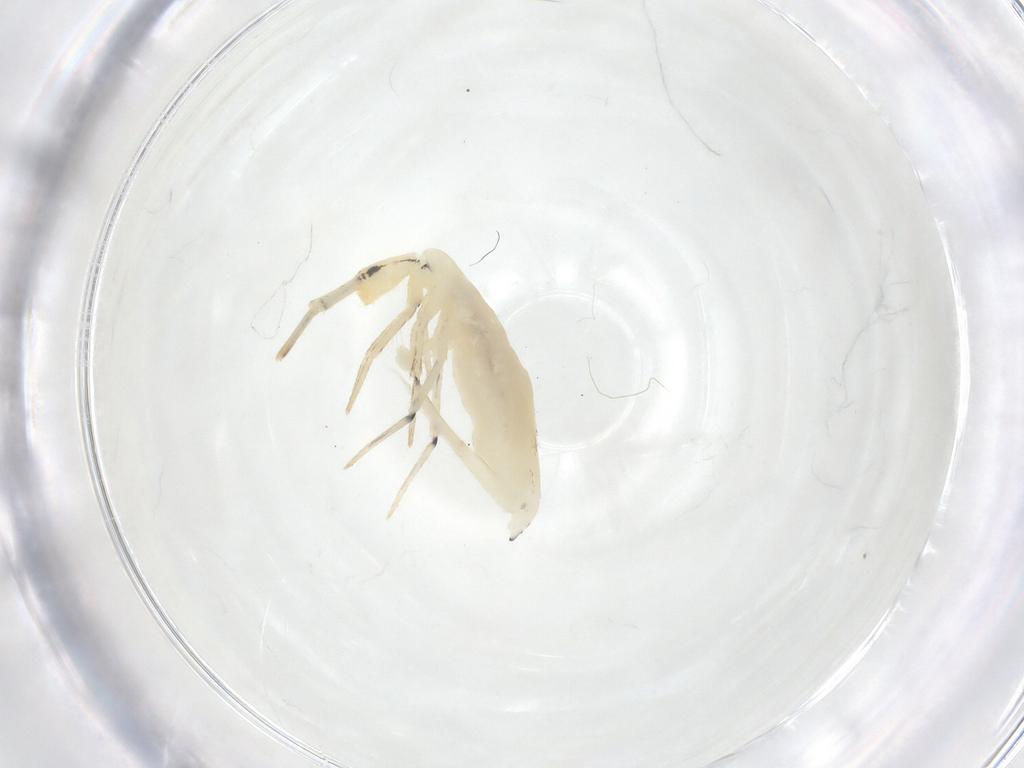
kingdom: Animalia
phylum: Arthropoda
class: Collembola
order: Entomobryomorpha
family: Entomobryidae
